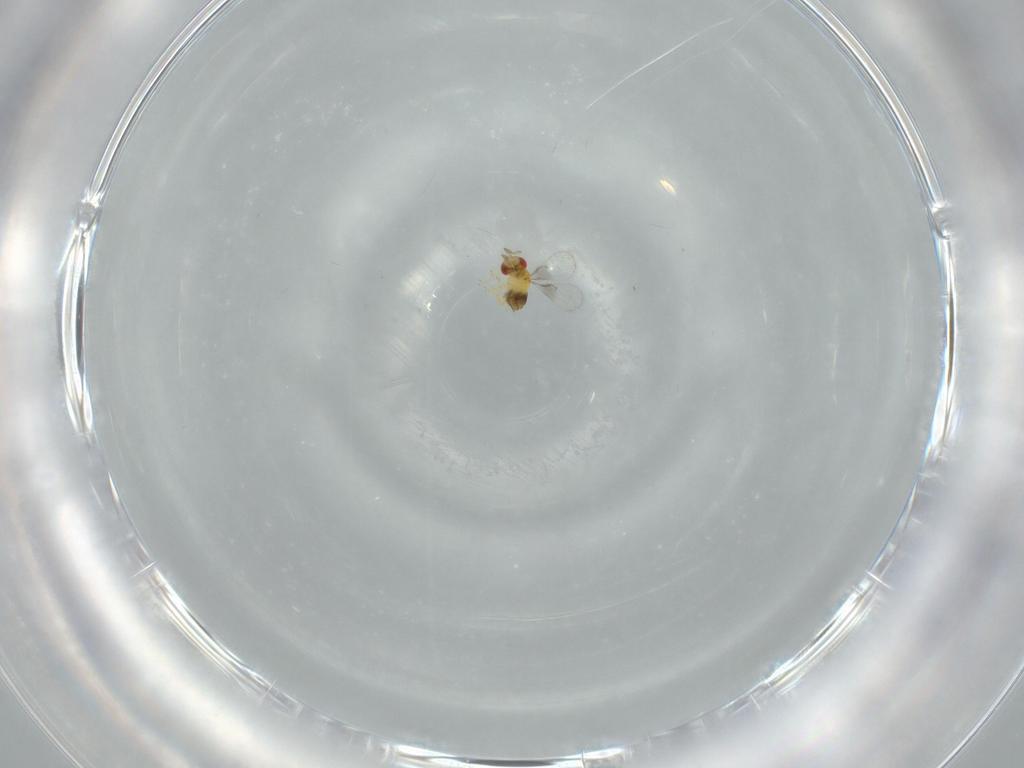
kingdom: Animalia
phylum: Arthropoda
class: Insecta
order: Hymenoptera
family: Trichogrammatidae
